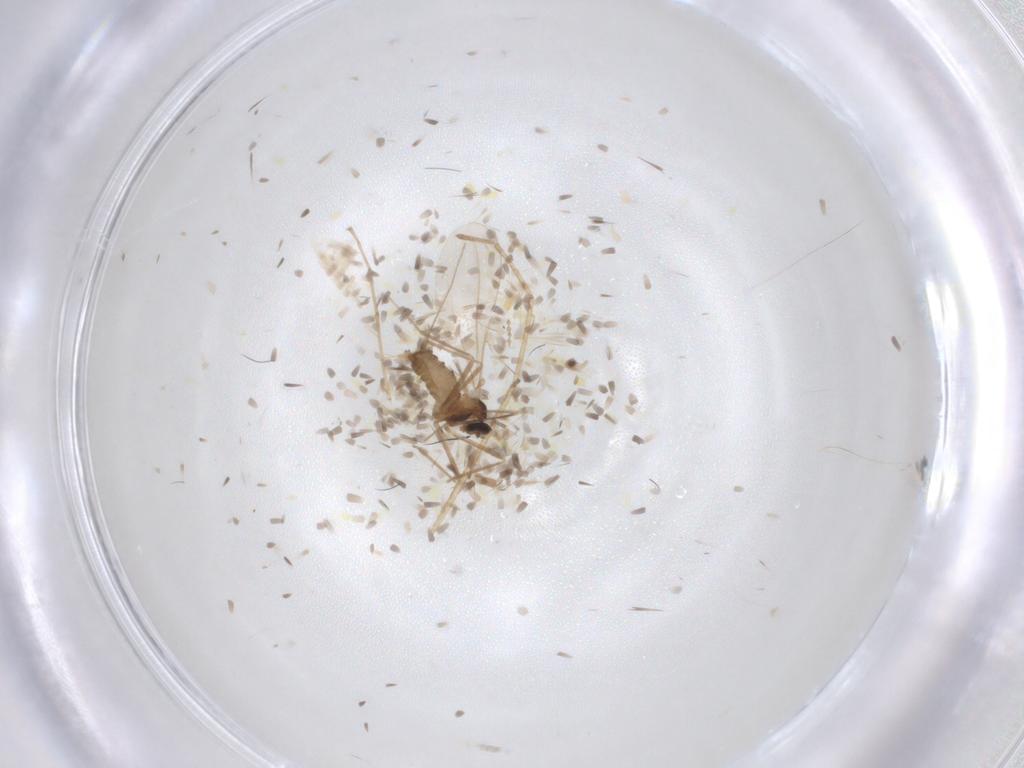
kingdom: Animalia
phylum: Arthropoda
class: Insecta
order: Diptera
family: Cecidomyiidae
